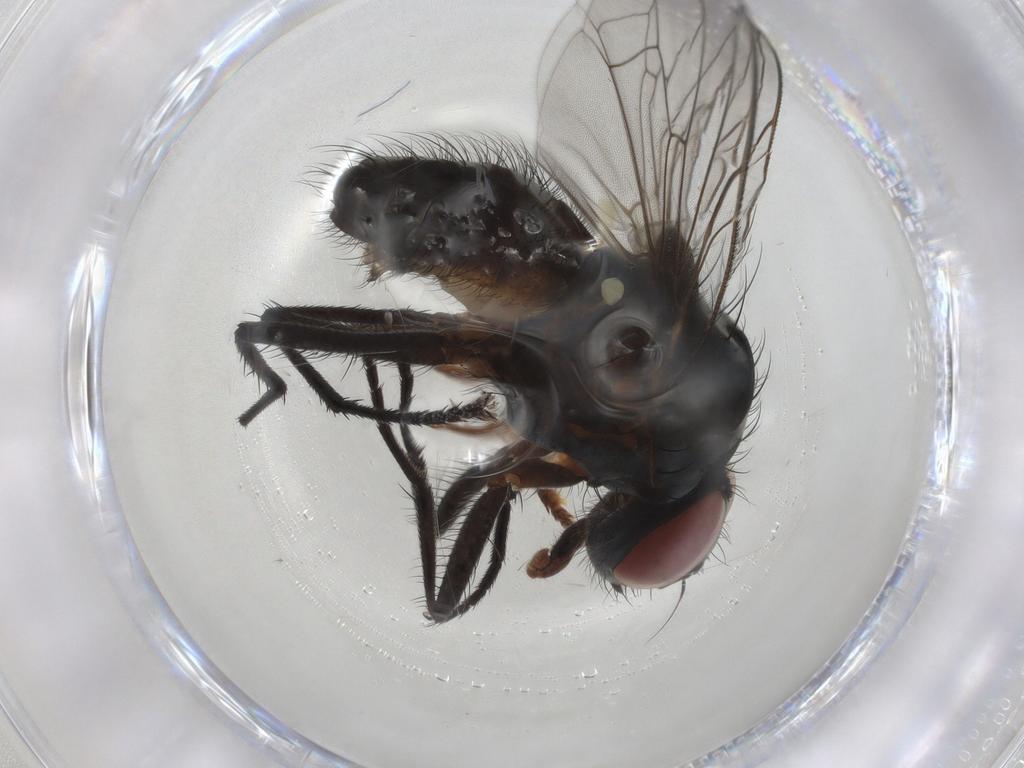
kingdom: Animalia
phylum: Arthropoda
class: Insecta
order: Diptera
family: Anthomyiidae
